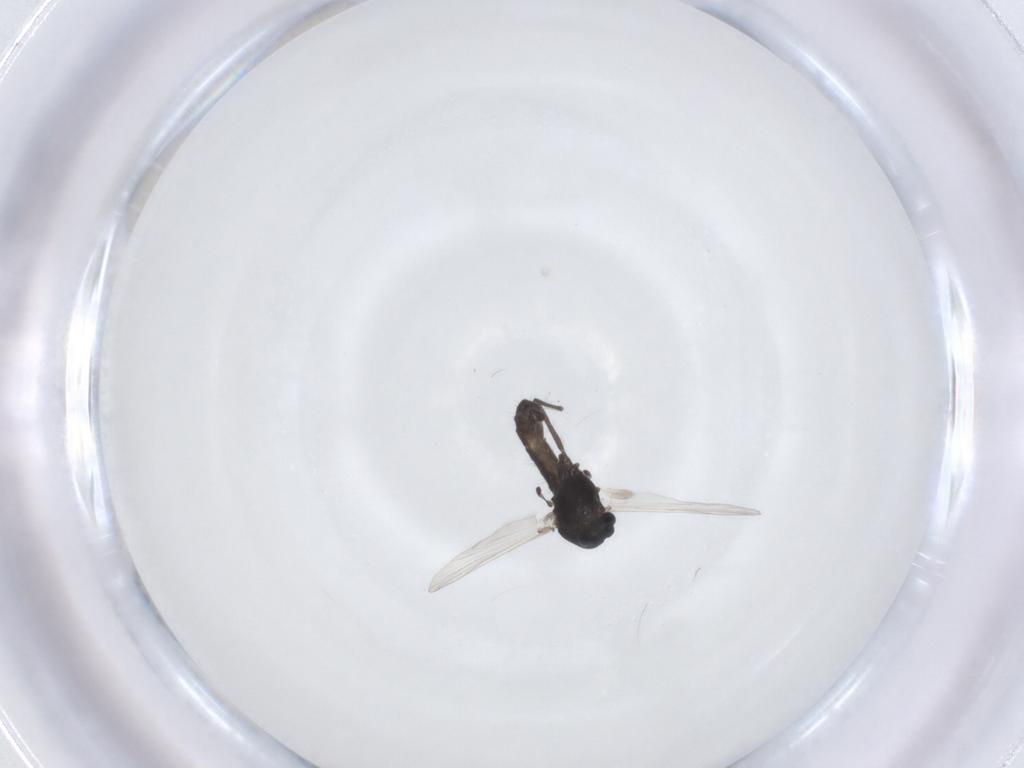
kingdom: Animalia
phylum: Arthropoda
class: Insecta
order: Diptera
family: Chironomidae
